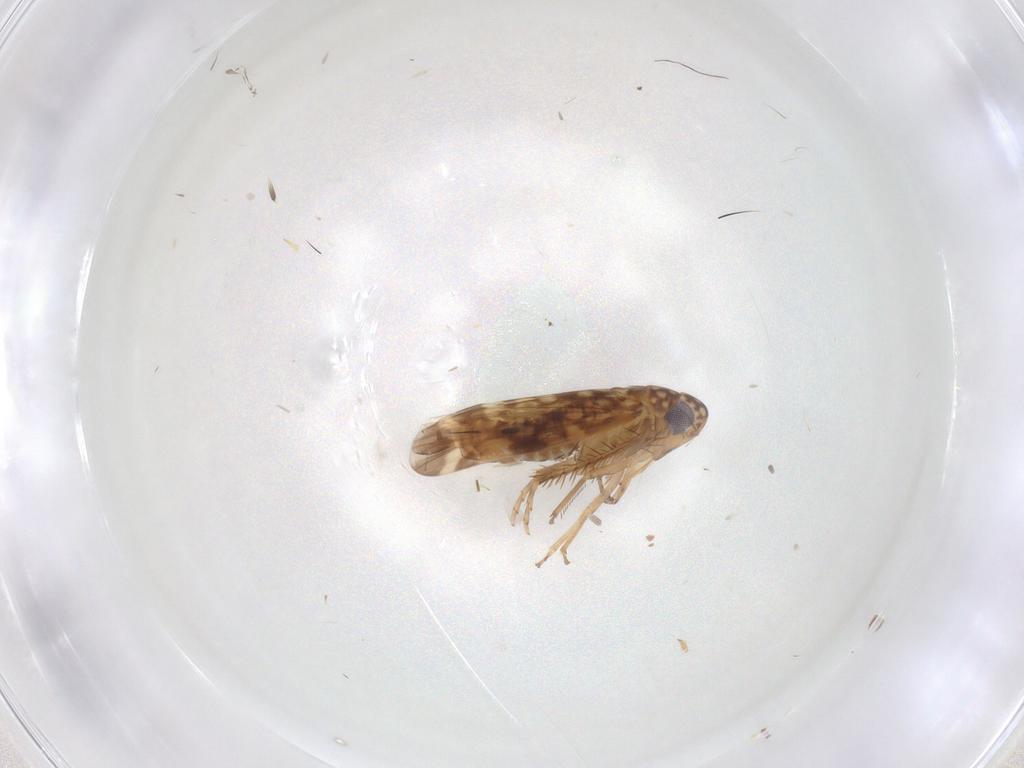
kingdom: Animalia
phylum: Arthropoda
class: Insecta
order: Hemiptera
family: Cicadellidae
